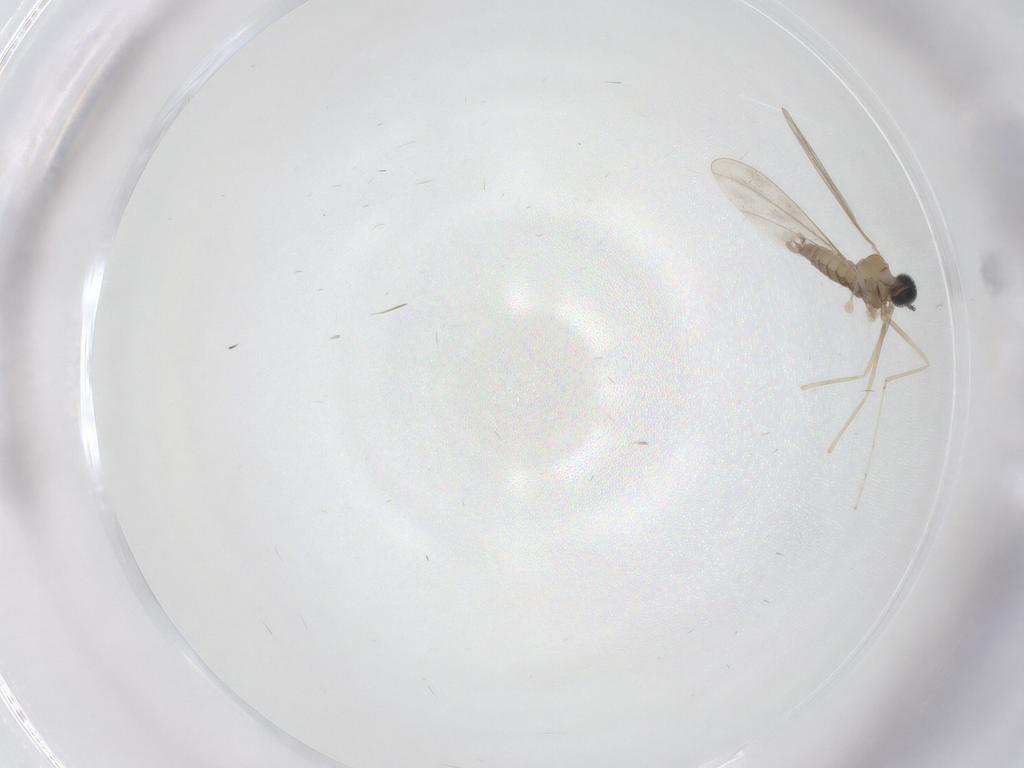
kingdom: Animalia
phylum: Arthropoda
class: Insecta
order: Diptera
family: Cecidomyiidae
